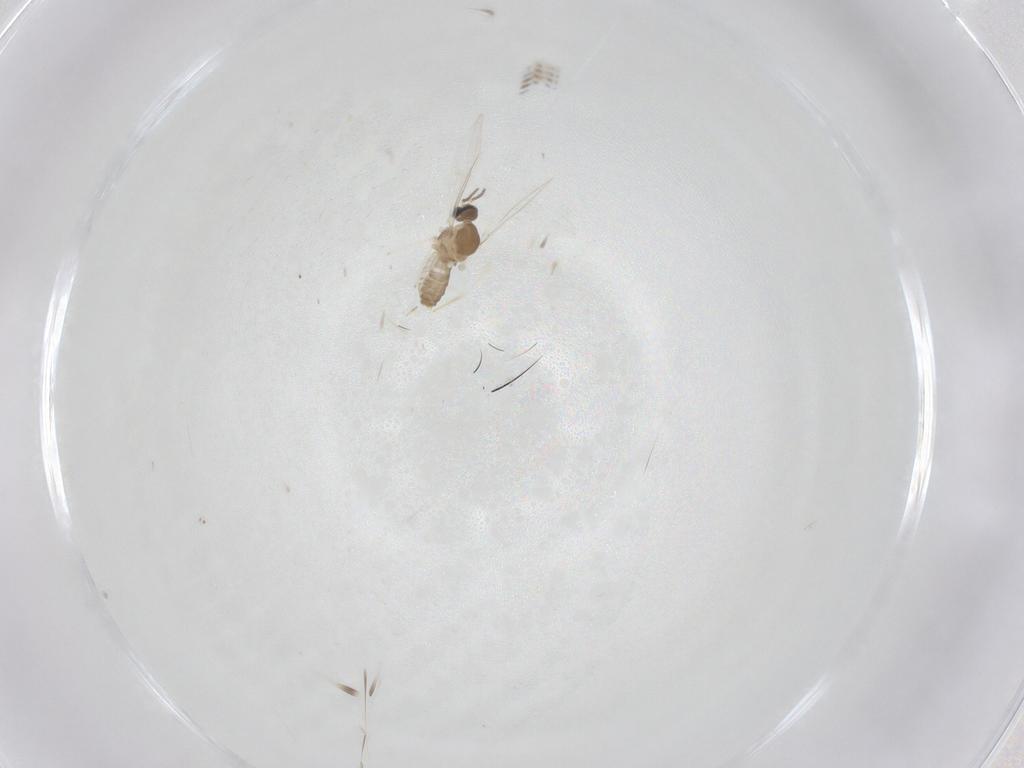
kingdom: Animalia
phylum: Arthropoda
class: Insecta
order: Diptera
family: Cecidomyiidae
